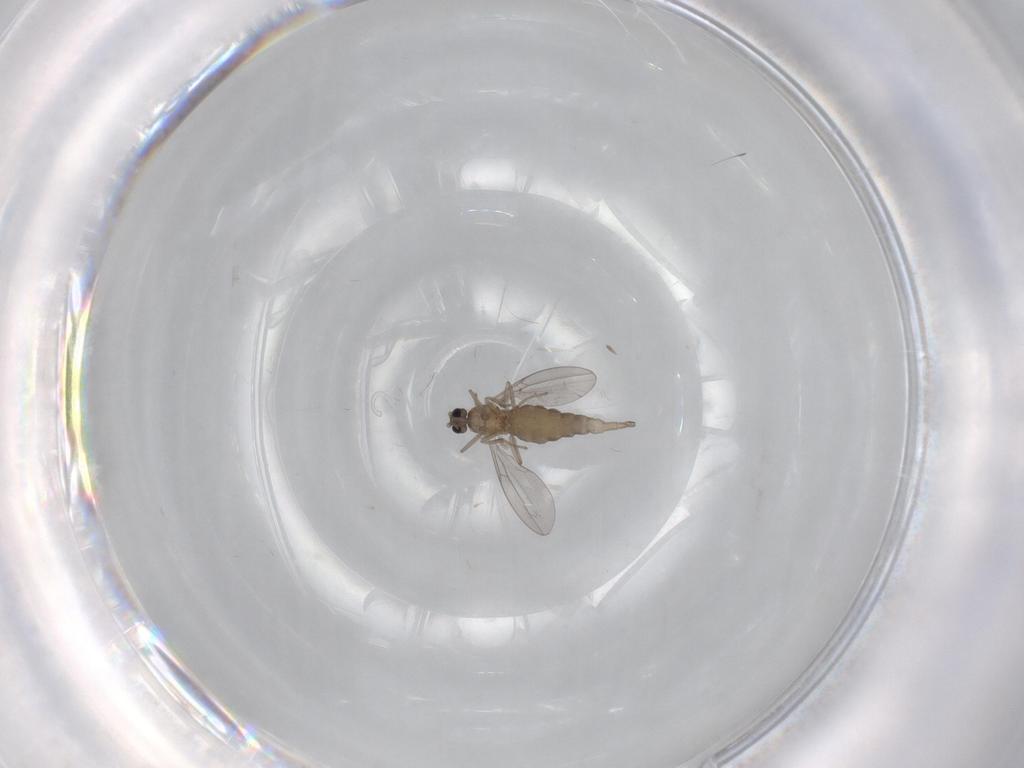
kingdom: Animalia
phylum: Arthropoda
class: Insecta
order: Diptera
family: Cecidomyiidae
